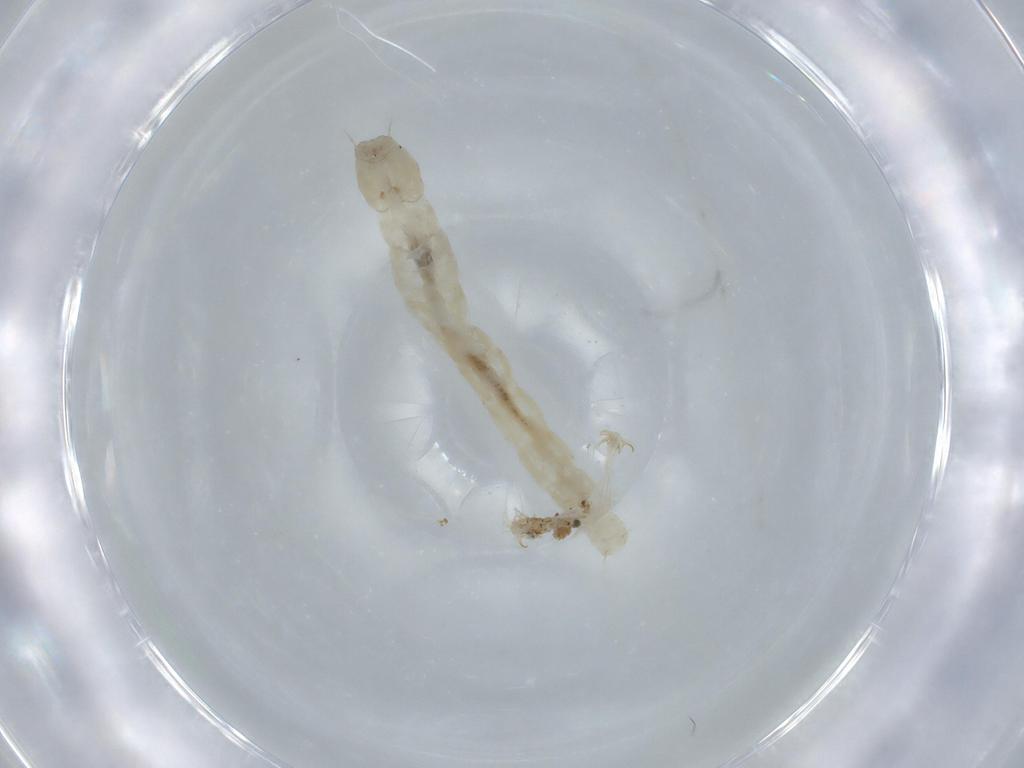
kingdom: Animalia
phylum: Arthropoda
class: Insecta
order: Diptera
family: Chironomidae
